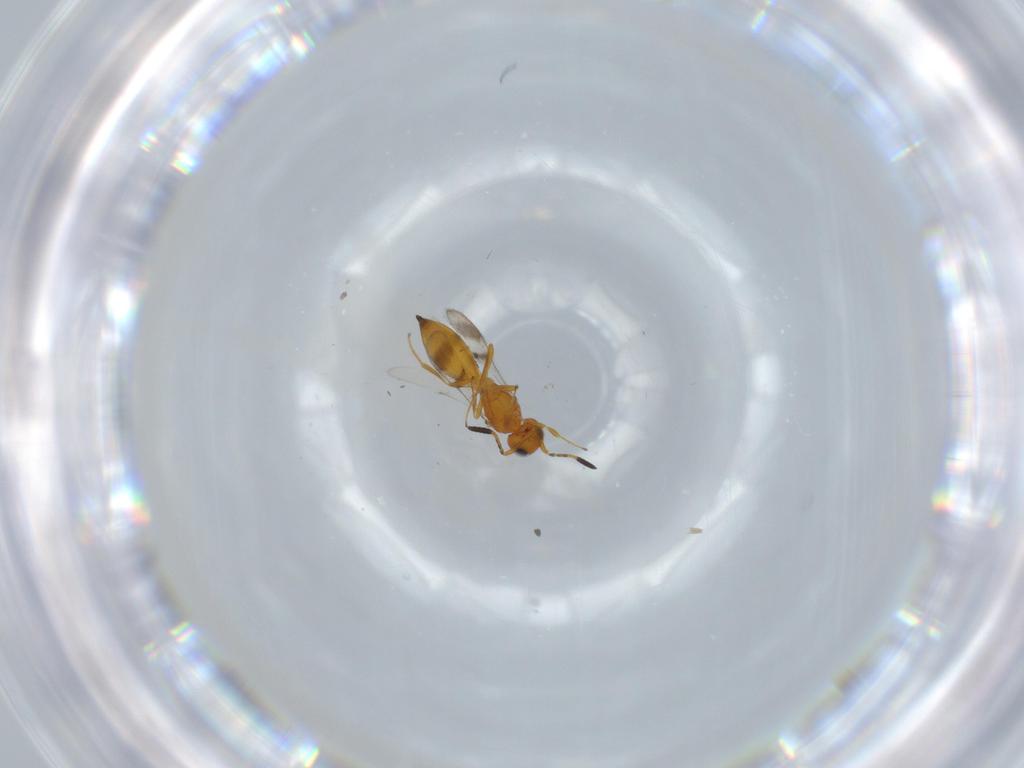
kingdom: Animalia
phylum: Arthropoda
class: Insecta
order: Hymenoptera
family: Scelionidae
